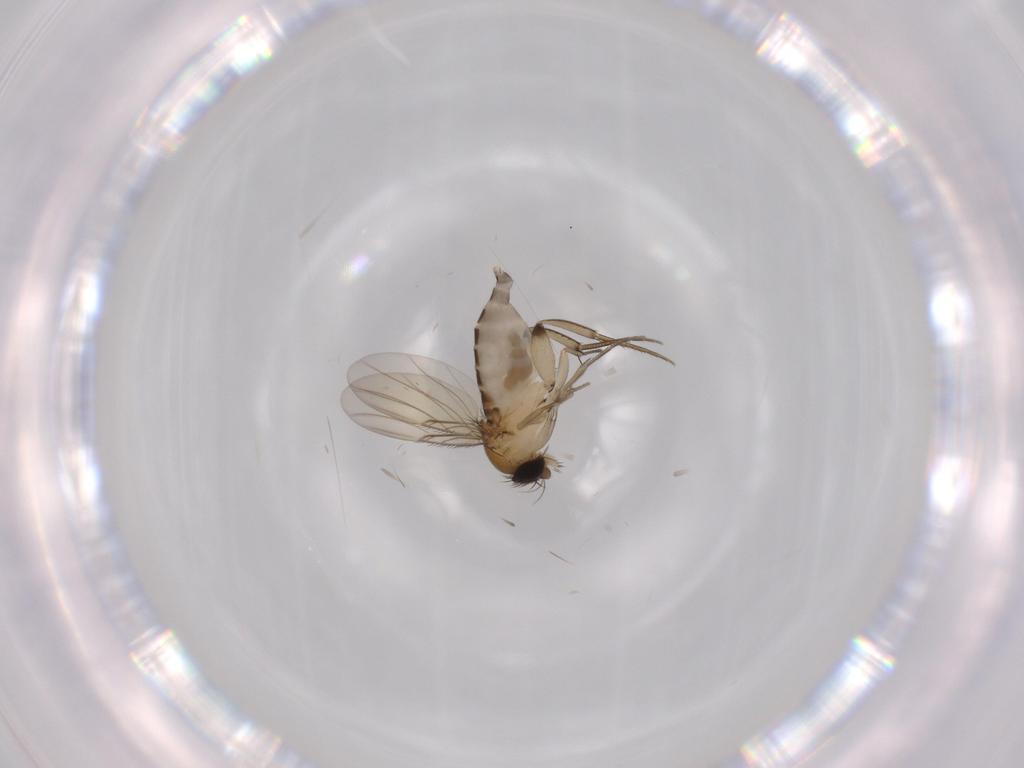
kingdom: Animalia
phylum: Arthropoda
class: Insecta
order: Diptera
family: Phoridae
